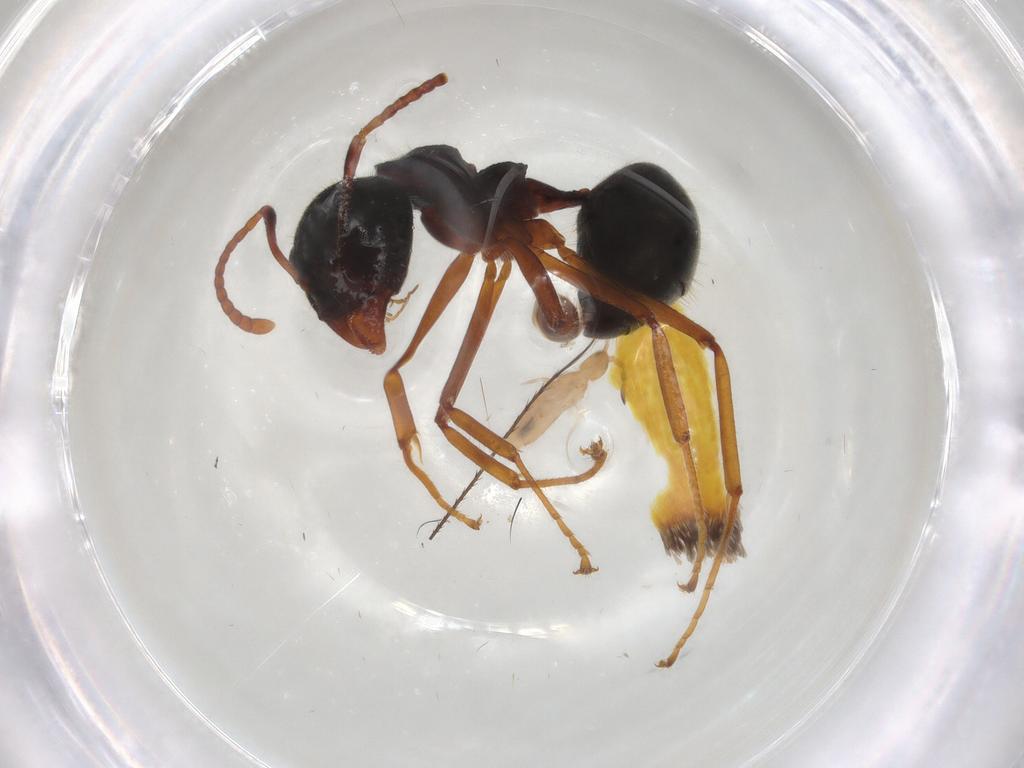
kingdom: Animalia
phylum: Arthropoda
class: Insecta
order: Hymenoptera
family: Formicidae
